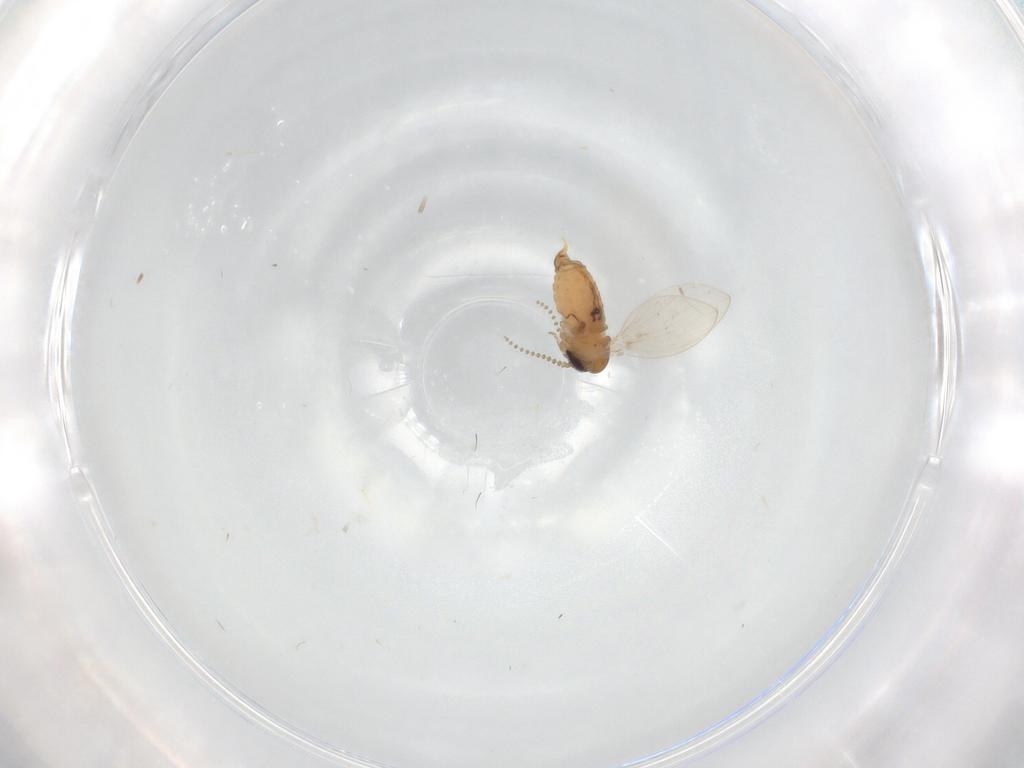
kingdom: Animalia
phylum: Arthropoda
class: Insecta
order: Diptera
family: Psychodidae
